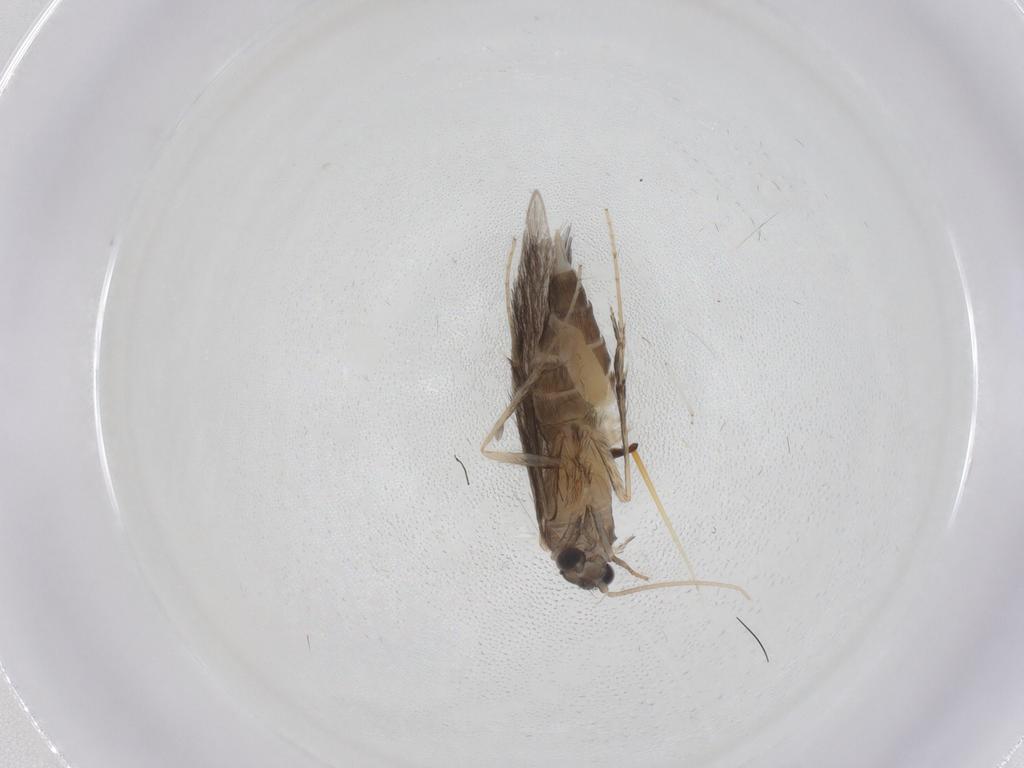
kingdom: Animalia
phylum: Arthropoda
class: Insecta
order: Trichoptera
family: Hydroptilidae
